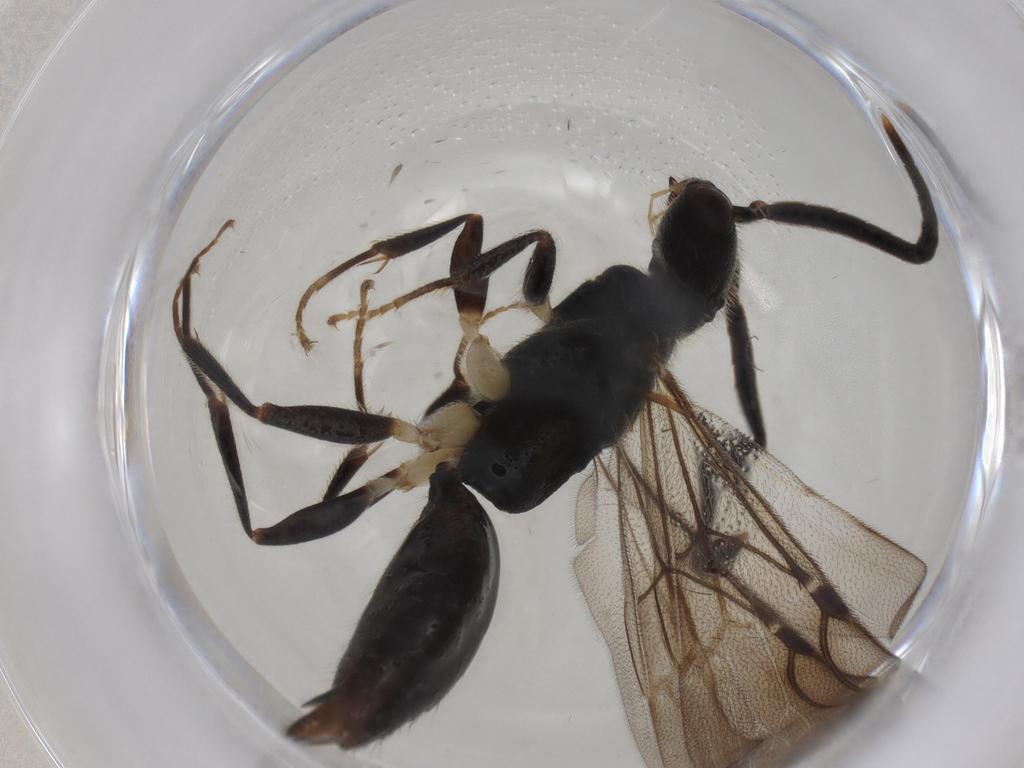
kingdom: Animalia
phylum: Arthropoda
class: Insecta
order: Hymenoptera
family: Bethylidae
